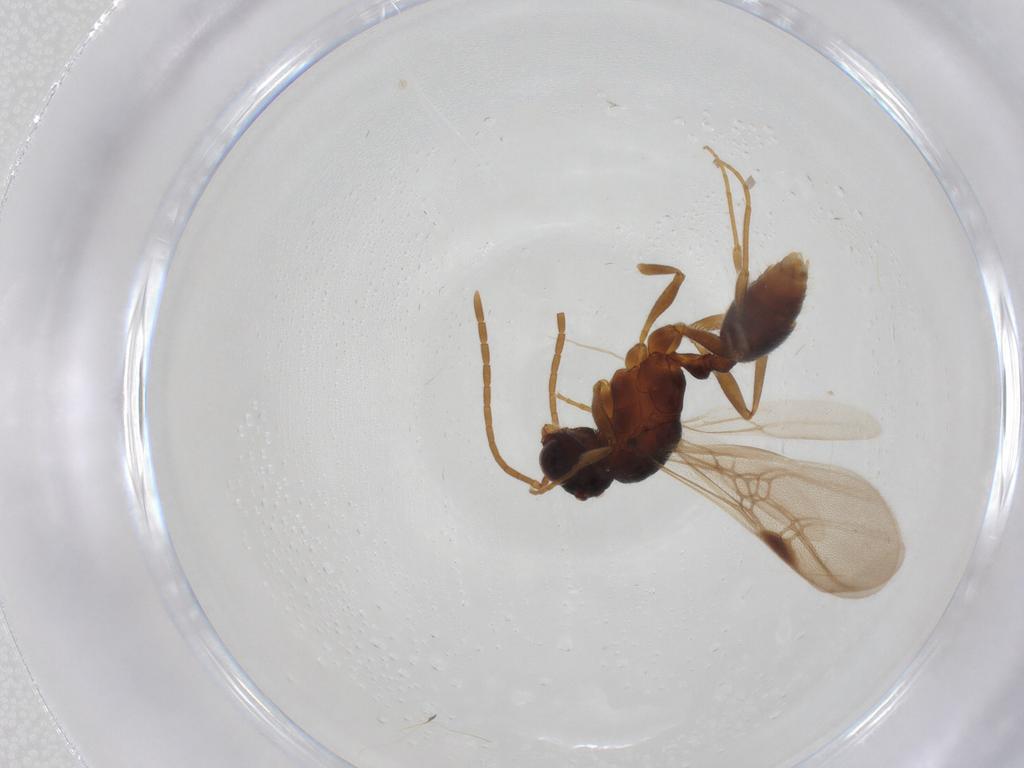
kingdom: Animalia
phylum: Arthropoda
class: Insecta
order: Hymenoptera
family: Formicidae
